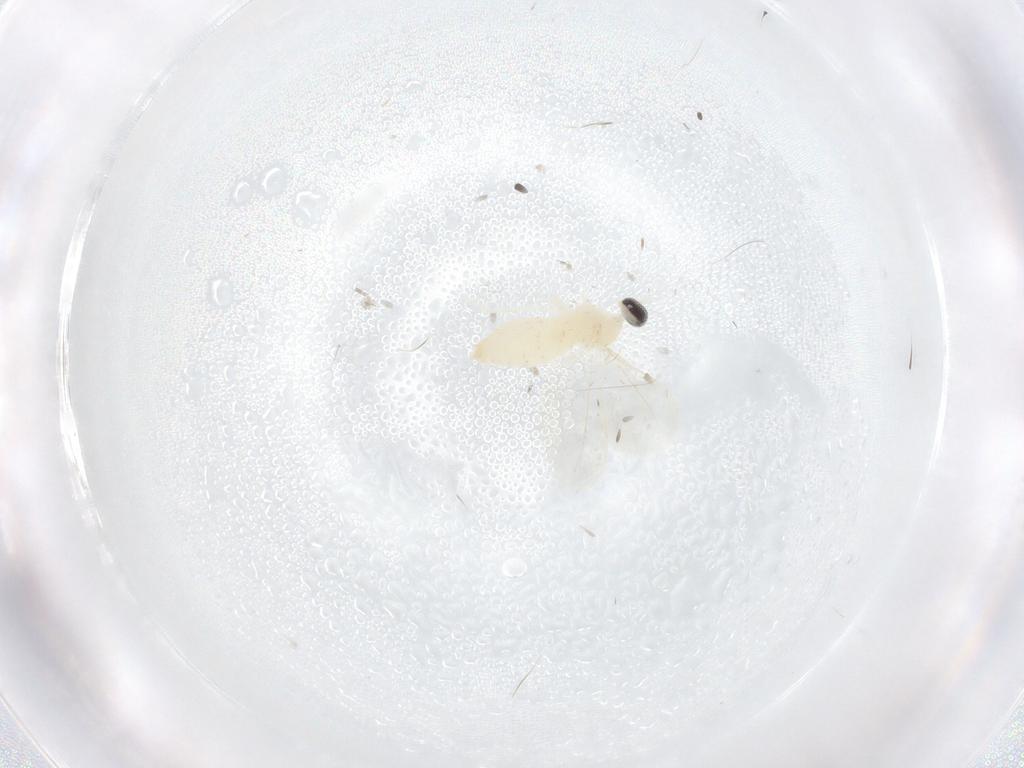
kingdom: Animalia
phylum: Arthropoda
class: Insecta
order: Diptera
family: Cecidomyiidae
